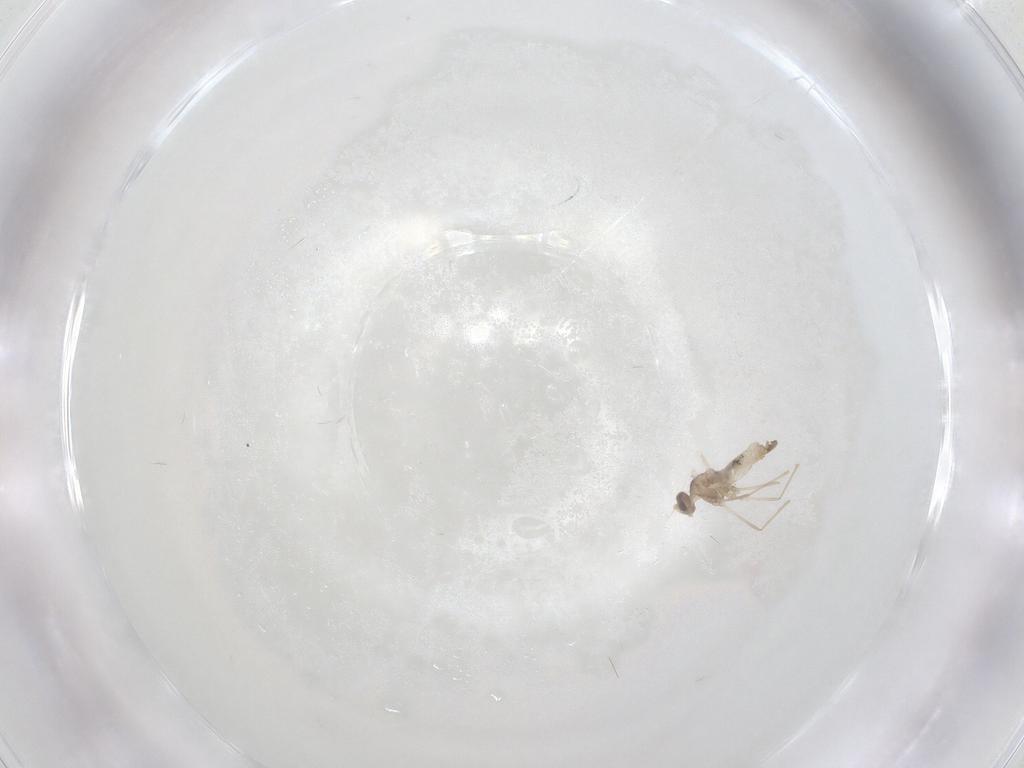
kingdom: Animalia
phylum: Arthropoda
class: Insecta
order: Diptera
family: Cecidomyiidae
